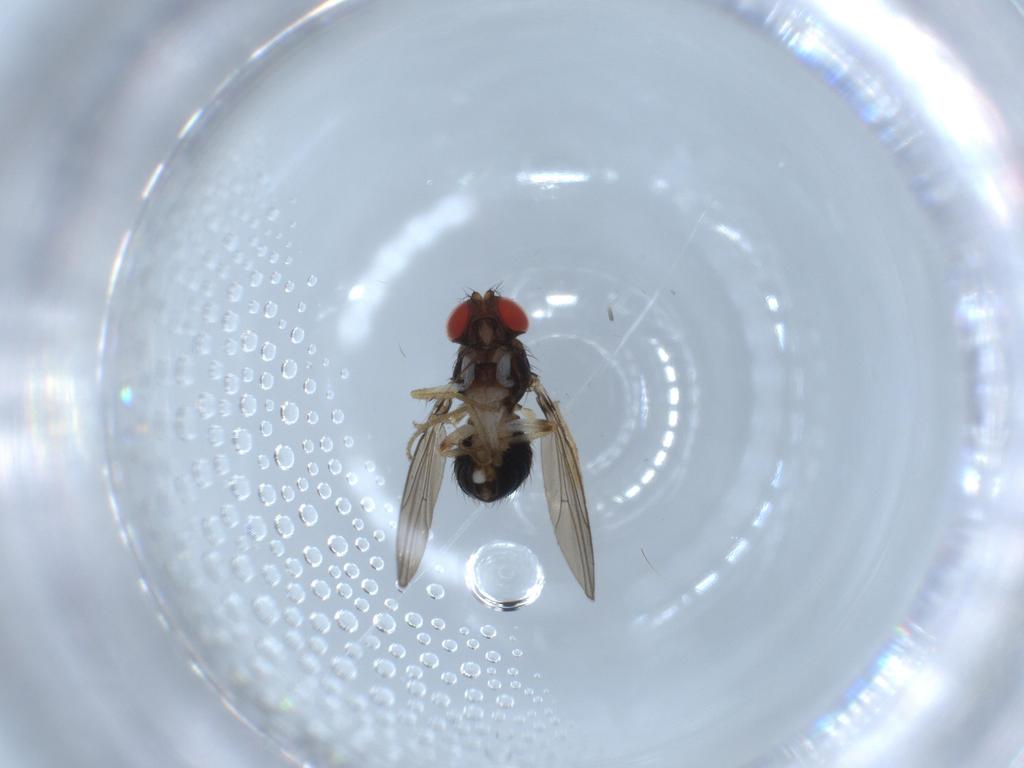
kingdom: Animalia
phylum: Arthropoda
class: Insecta
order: Diptera
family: Drosophilidae
